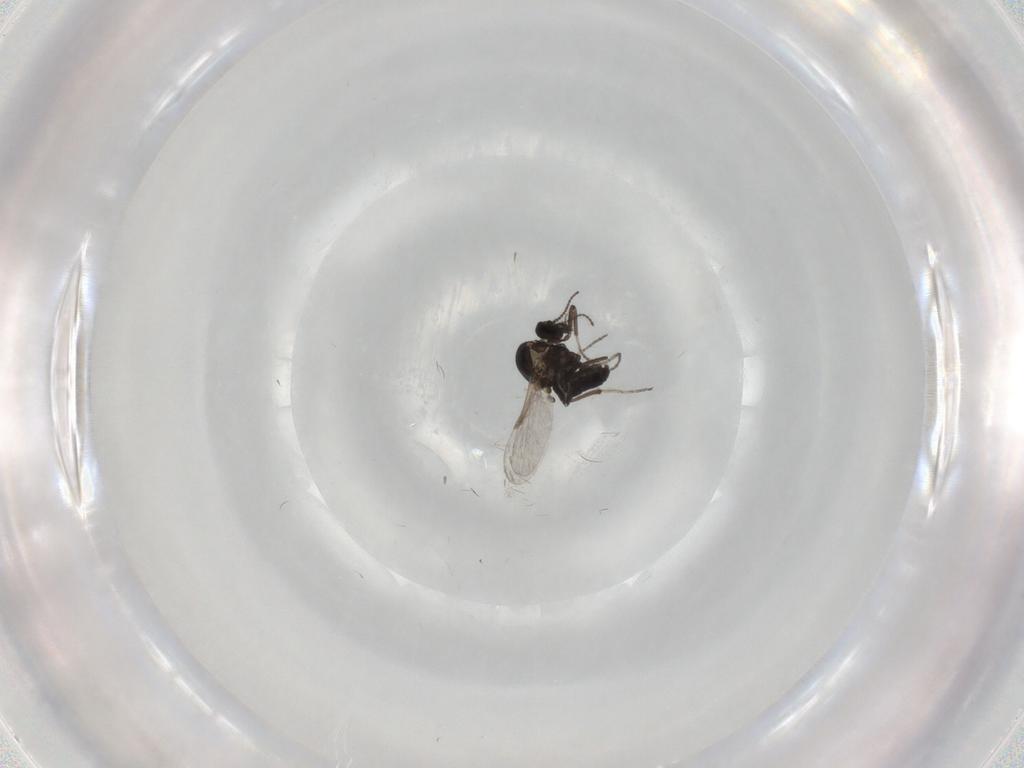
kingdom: Animalia
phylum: Arthropoda
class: Insecta
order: Diptera
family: Ceratopogonidae
